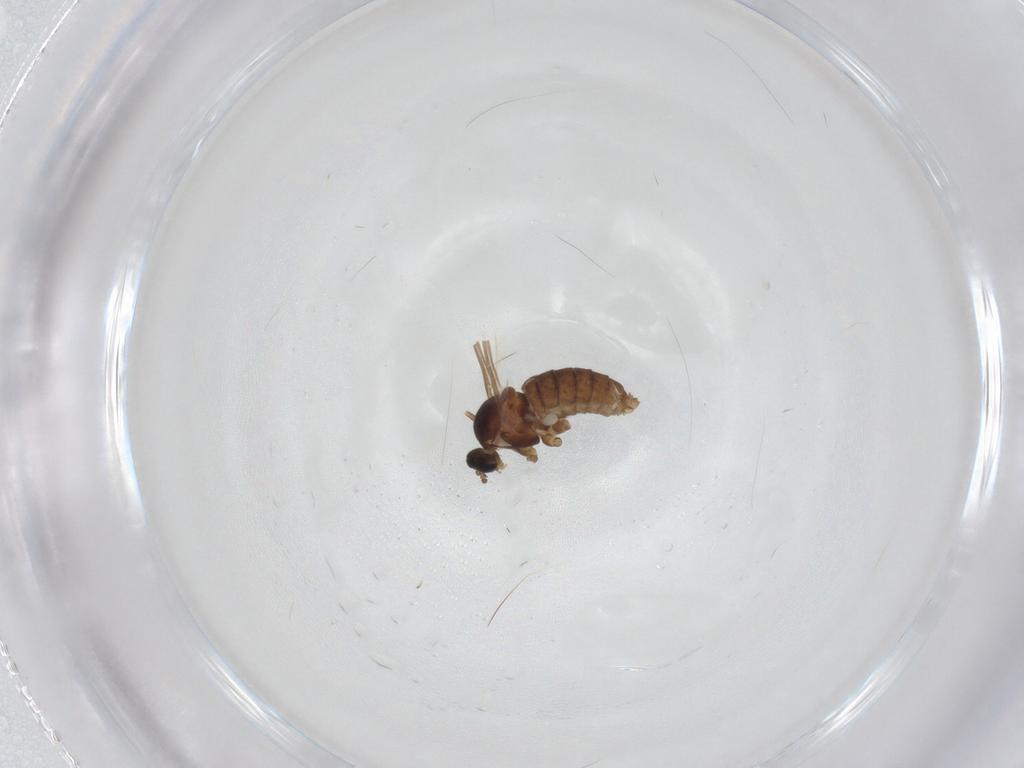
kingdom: Animalia
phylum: Arthropoda
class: Insecta
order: Diptera
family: Cecidomyiidae
